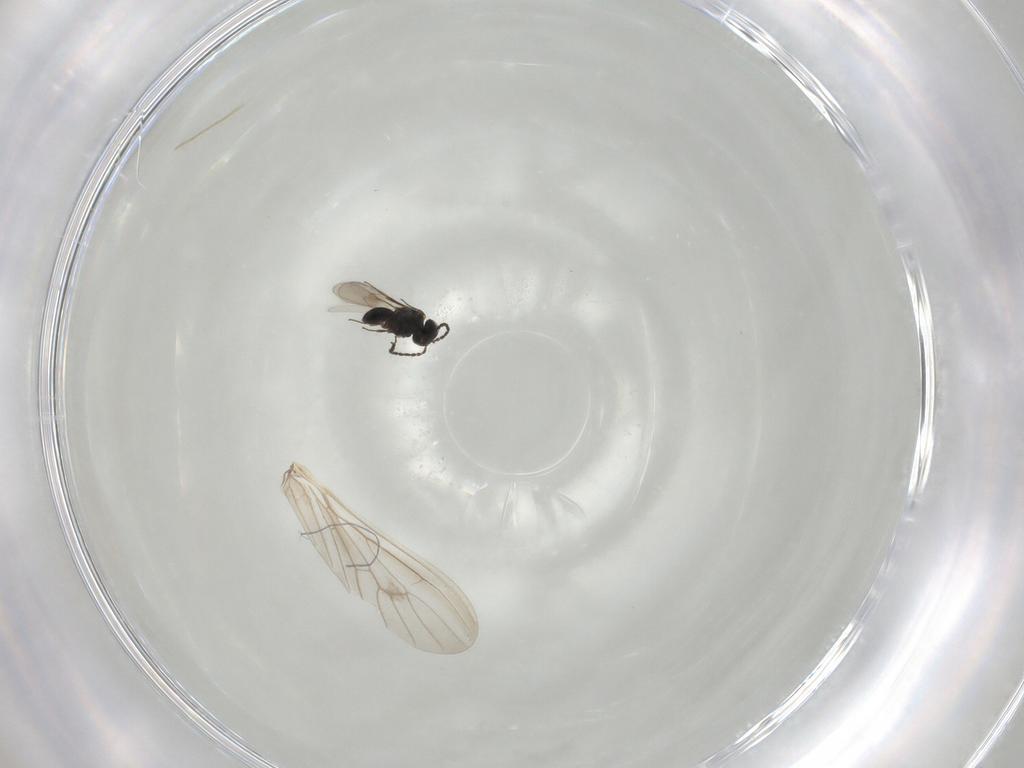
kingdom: Animalia
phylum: Arthropoda
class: Insecta
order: Hymenoptera
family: Scelionidae
